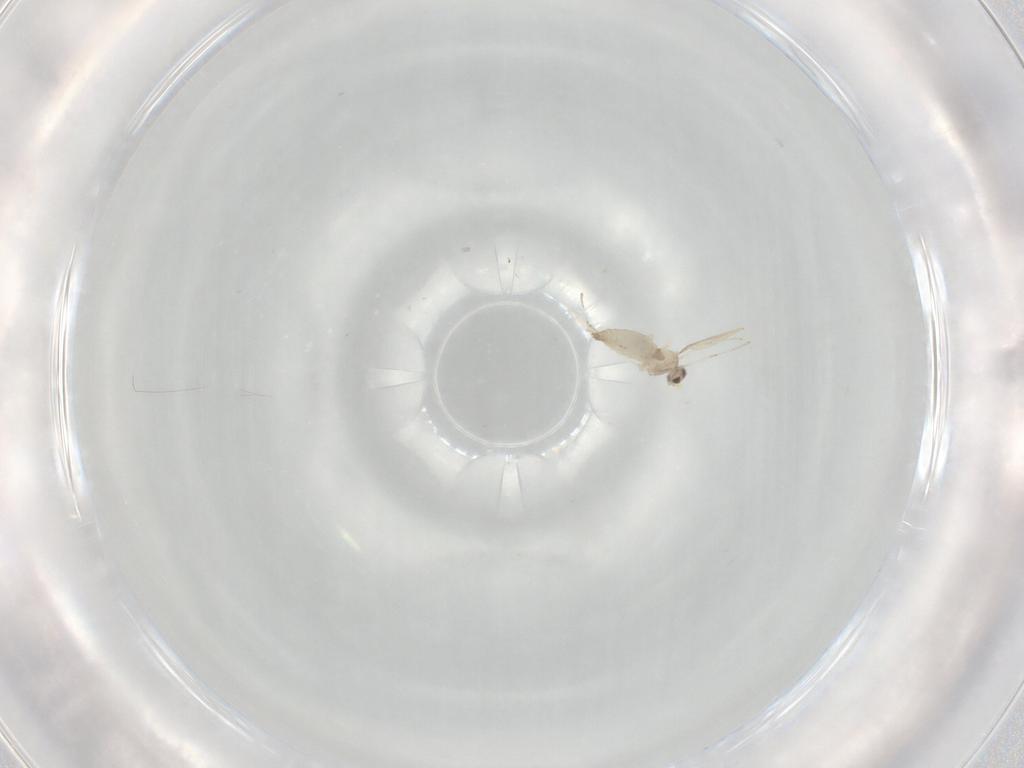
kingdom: Animalia
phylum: Arthropoda
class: Insecta
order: Diptera
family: Cecidomyiidae
